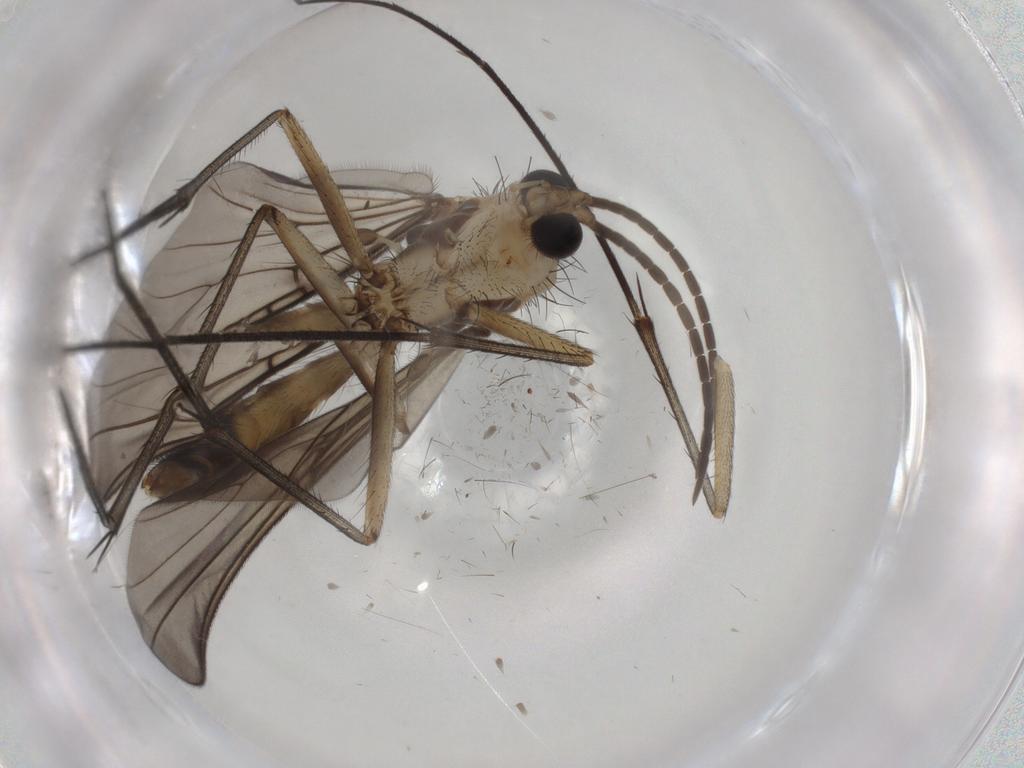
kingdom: Animalia
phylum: Arthropoda
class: Insecta
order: Diptera
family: Mycetophilidae
